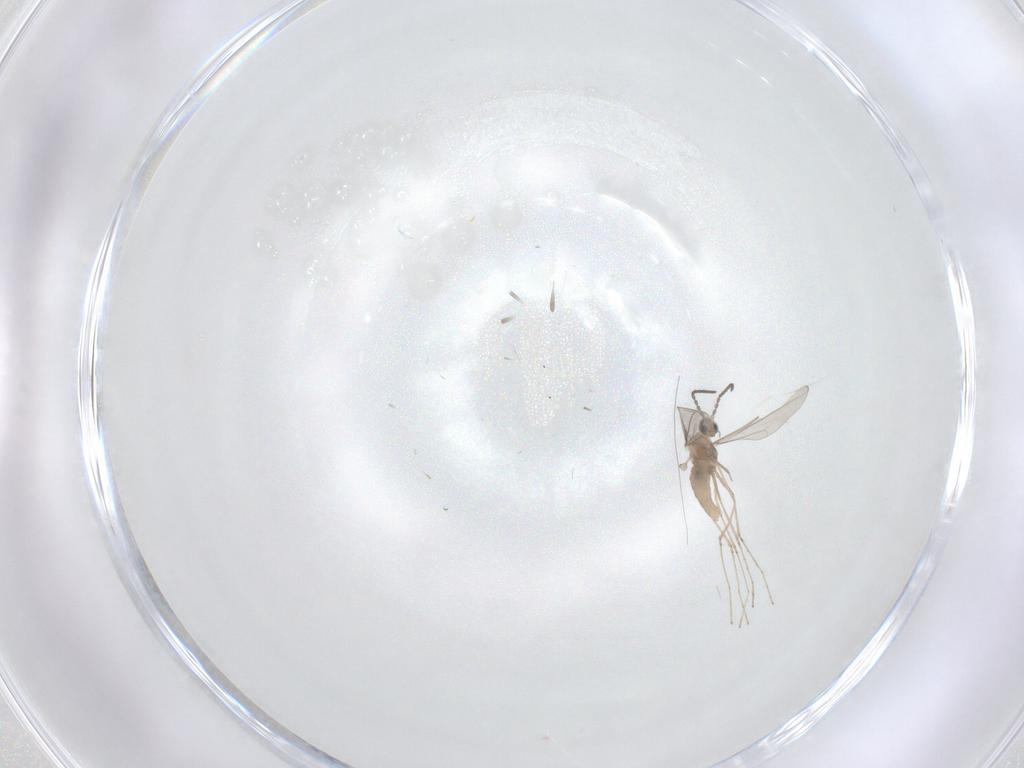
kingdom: Animalia
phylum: Arthropoda
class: Insecta
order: Diptera
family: Cecidomyiidae
